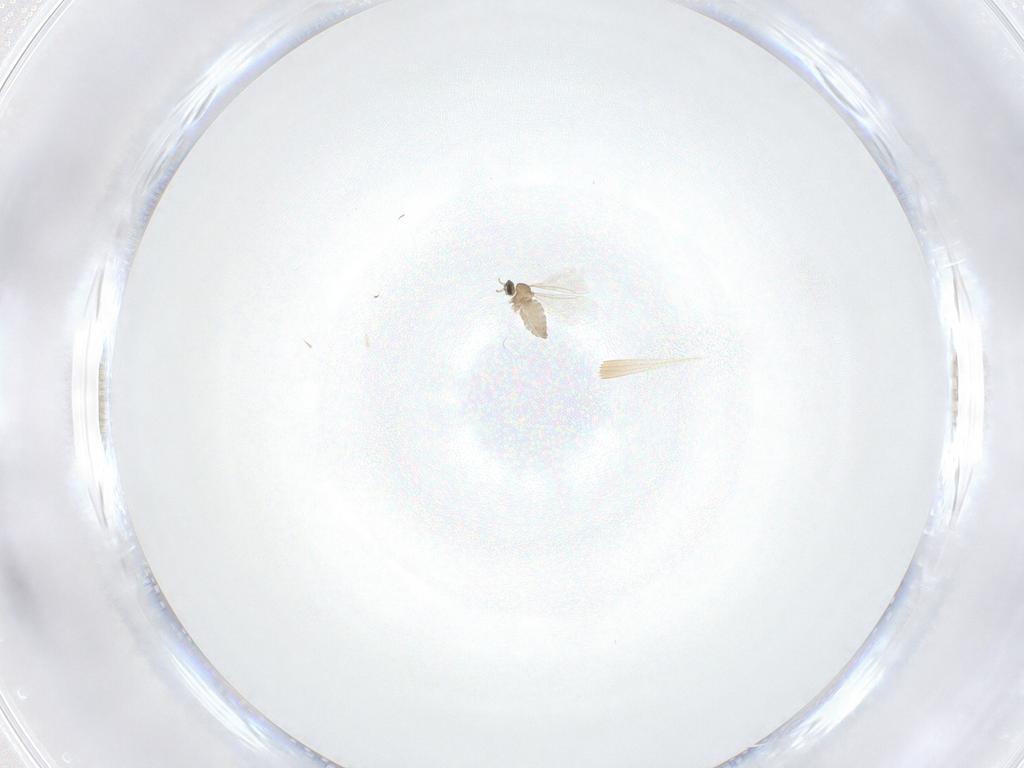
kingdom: Animalia
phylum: Arthropoda
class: Insecta
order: Diptera
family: Cecidomyiidae
